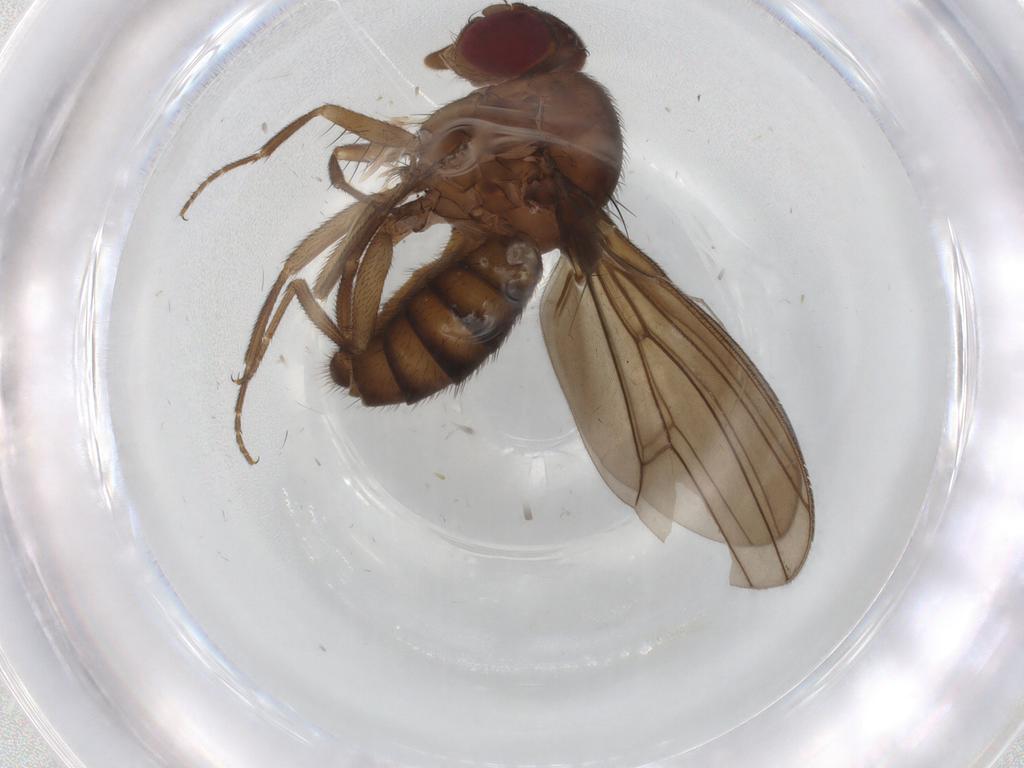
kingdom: Animalia
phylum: Arthropoda
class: Insecta
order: Diptera
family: Drosophilidae
